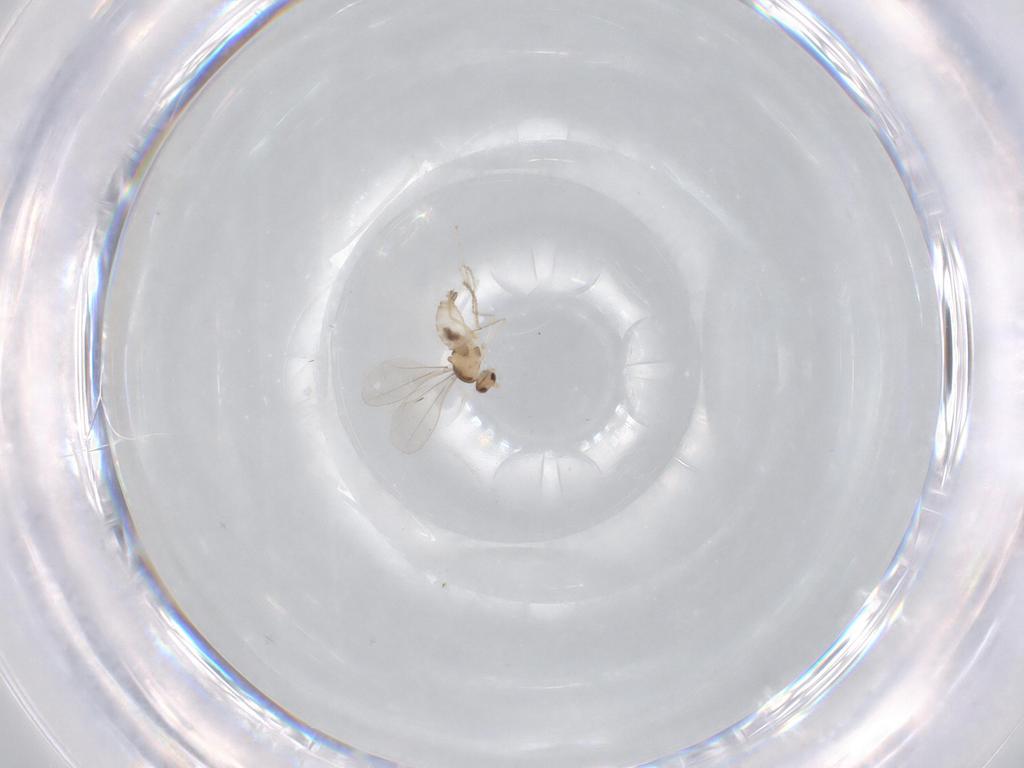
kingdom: Animalia
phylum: Arthropoda
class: Insecta
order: Diptera
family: Cecidomyiidae
